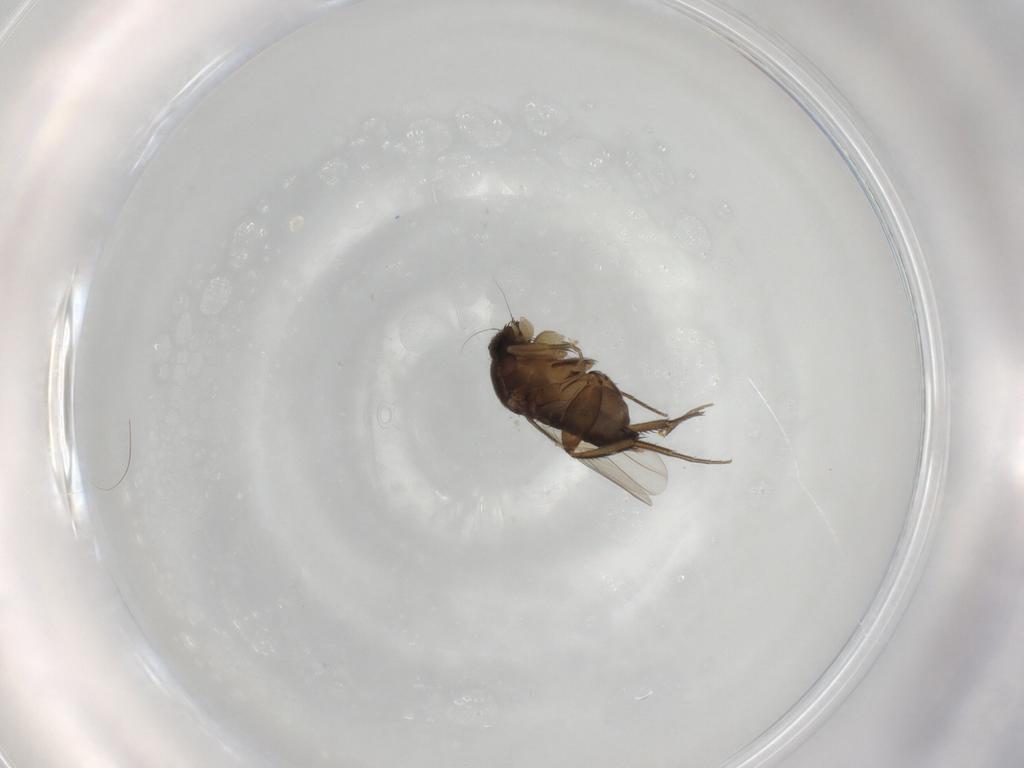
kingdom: Animalia
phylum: Arthropoda
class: Insecta
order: Diptera
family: Phoridae
